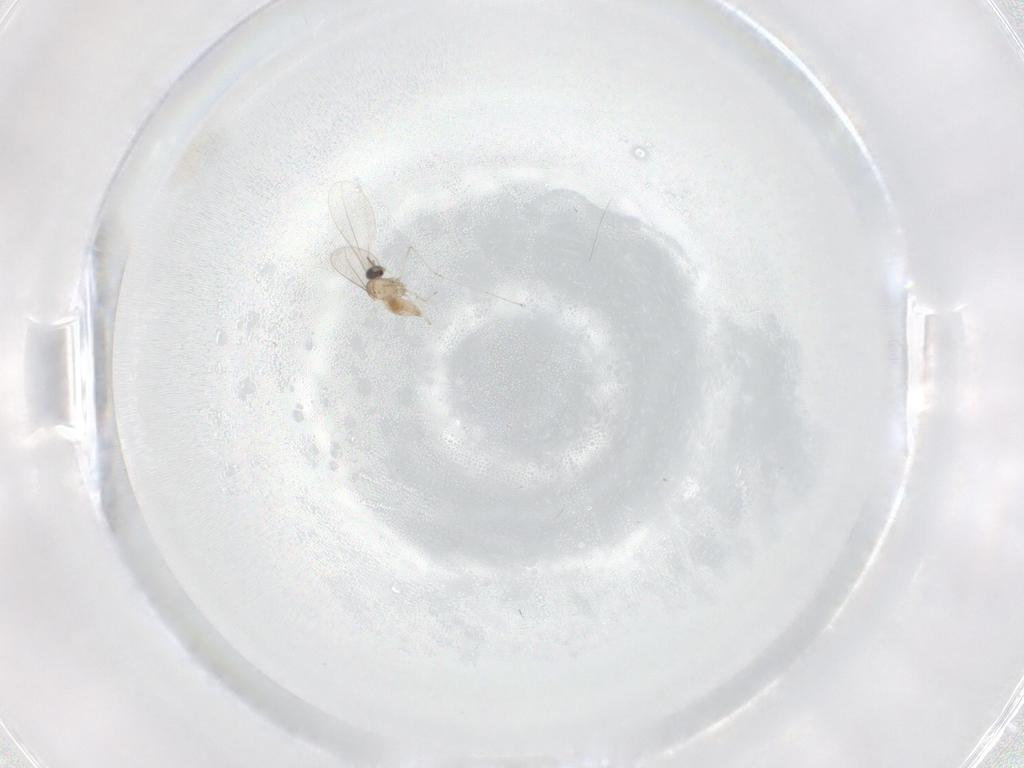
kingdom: Animalia
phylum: Arthropoda
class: Insecta
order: Diptera
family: Cecidomyiidae
